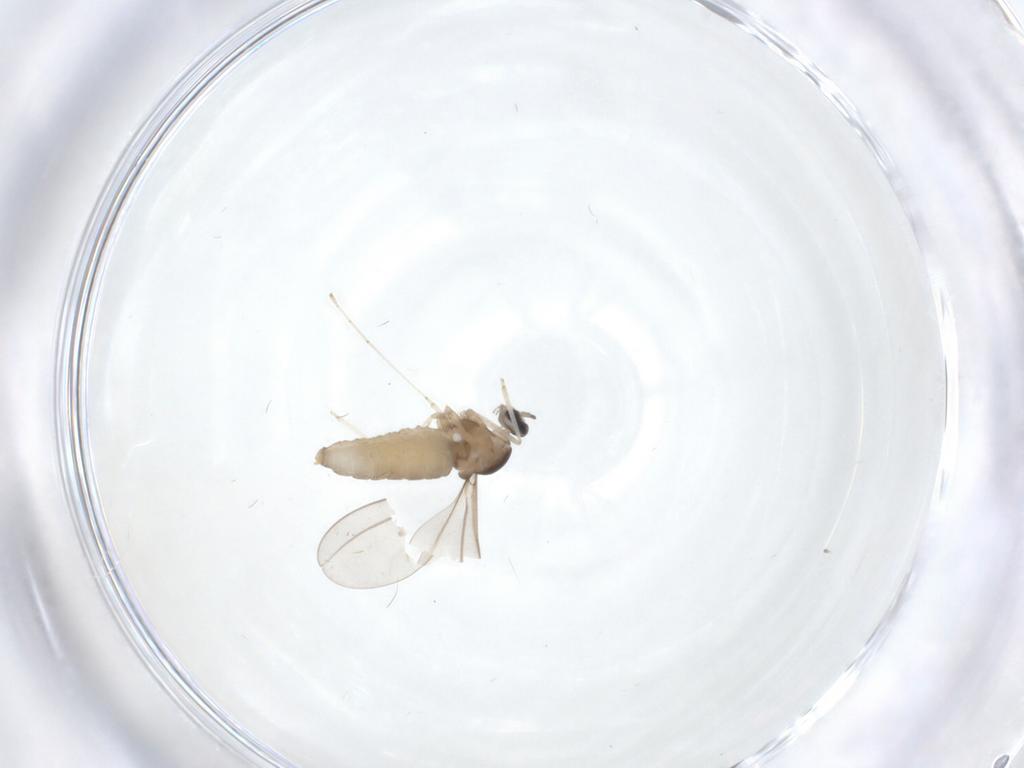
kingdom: Animalia
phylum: Arthropoda
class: Insecta
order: Diptera
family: Cecidomyiidae
